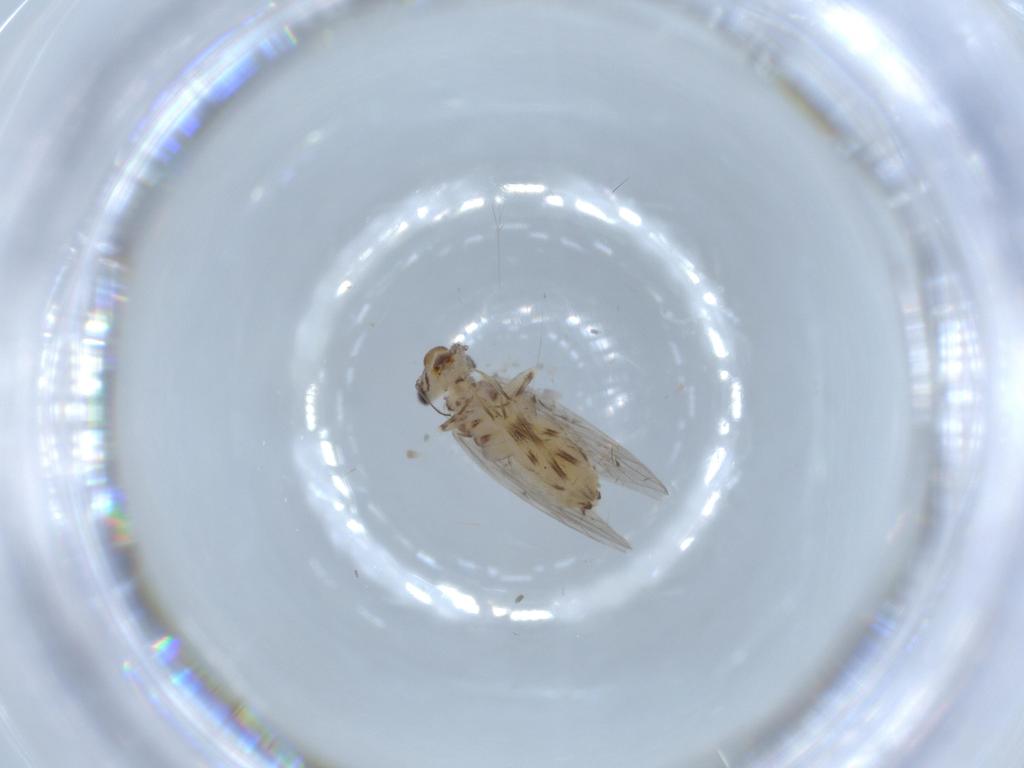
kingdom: Animalia
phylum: Arthropoda
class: Insecta
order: Psocodea
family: Lepidopsocidae
